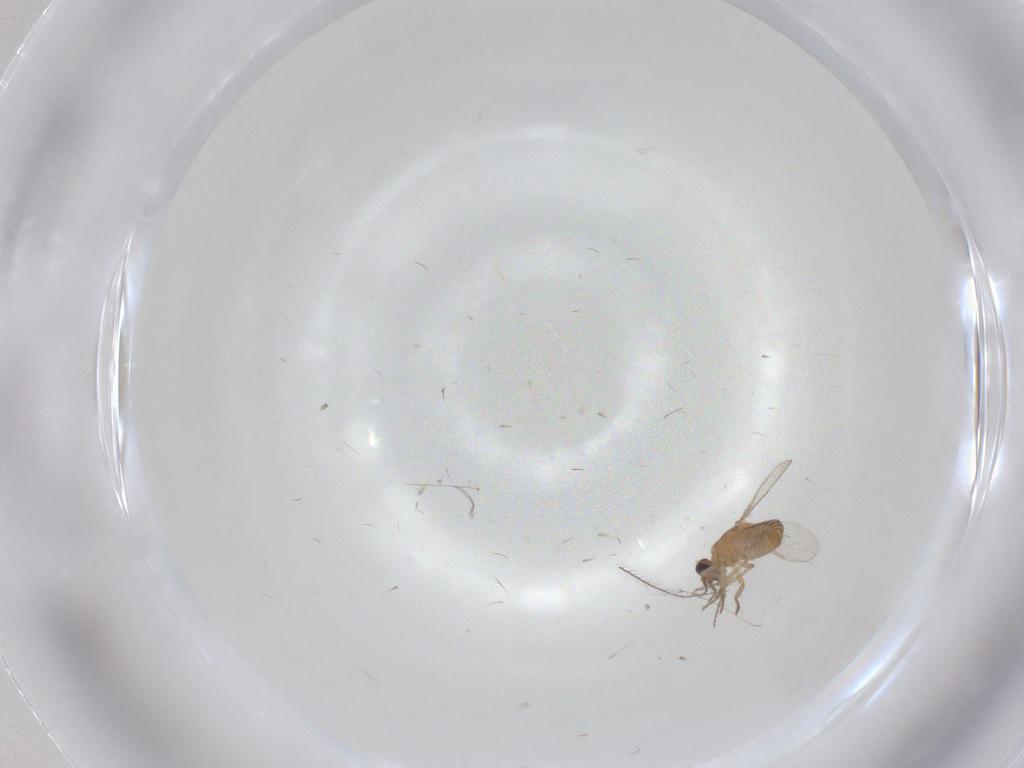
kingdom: Animalia
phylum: Arthropoda
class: Insecta
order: Diptera
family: Ceratopogonidae
